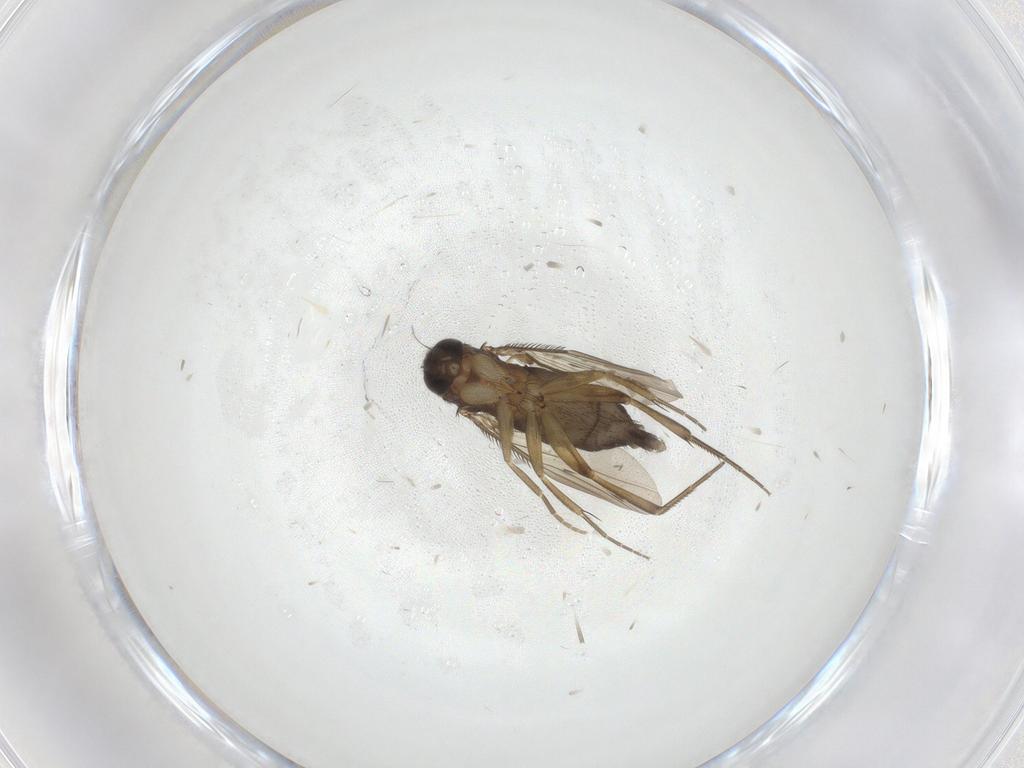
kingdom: Animalia
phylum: Arthropoda
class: Insecta
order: Diptera
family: Phoridae
